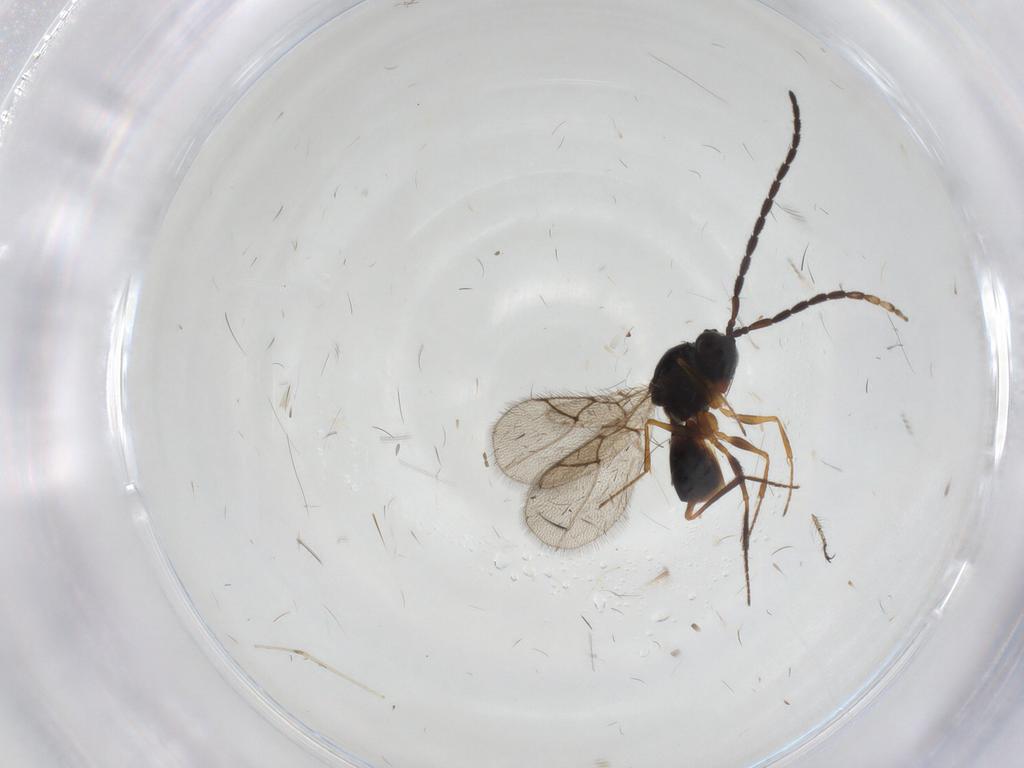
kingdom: Animalia
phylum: Arthropoda
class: Insecta
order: Hymenoptera
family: Figitidae
